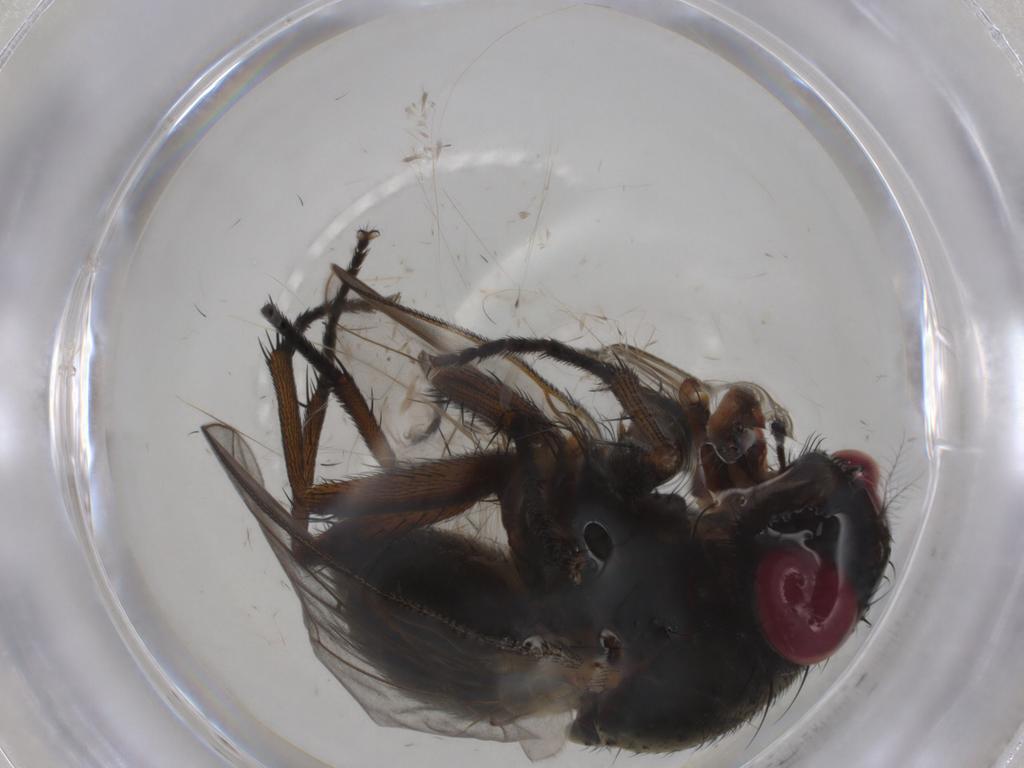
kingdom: Animalia
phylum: Arthropoda
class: Insecta
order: Diptera
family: Muscidae
